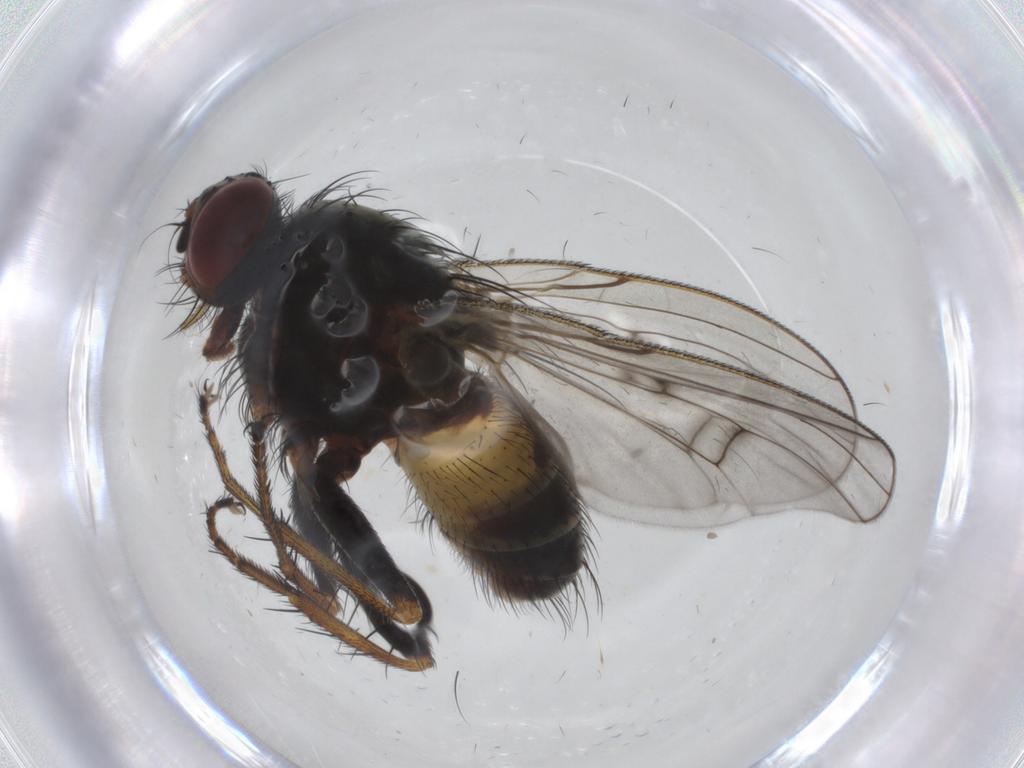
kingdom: Animalia
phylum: Arthropoda
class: Insecta
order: Diptera
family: Muscidae
